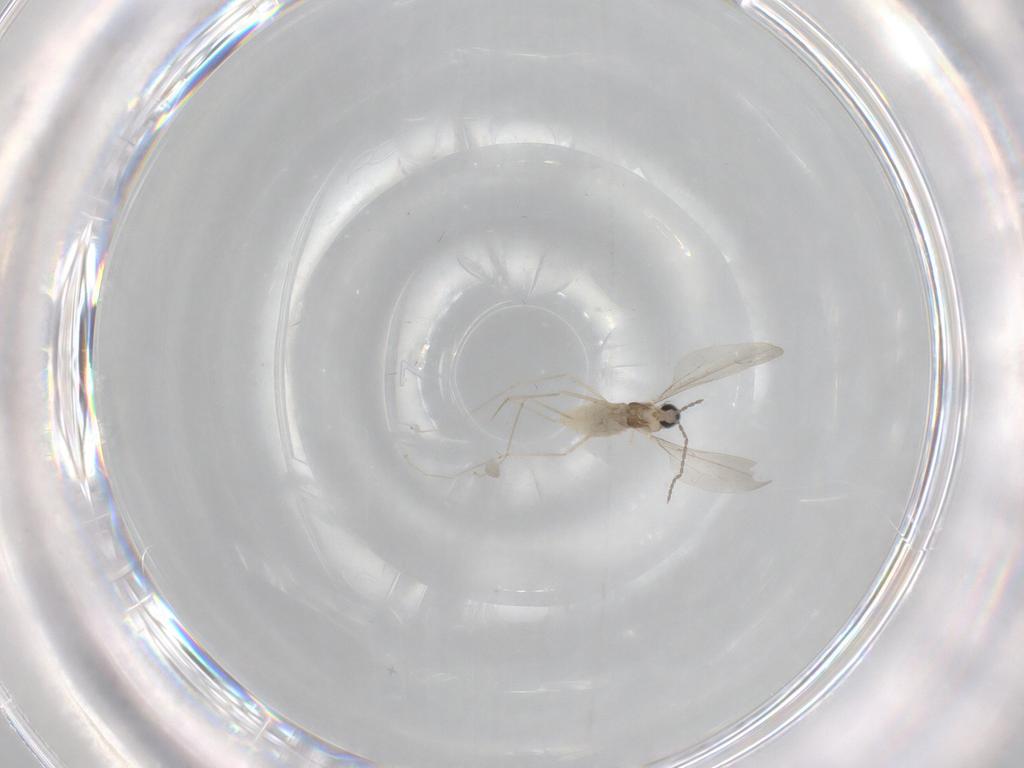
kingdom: Animalia
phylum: Arthropoda
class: Insecta
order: Diptera
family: Cecidomyiidae
